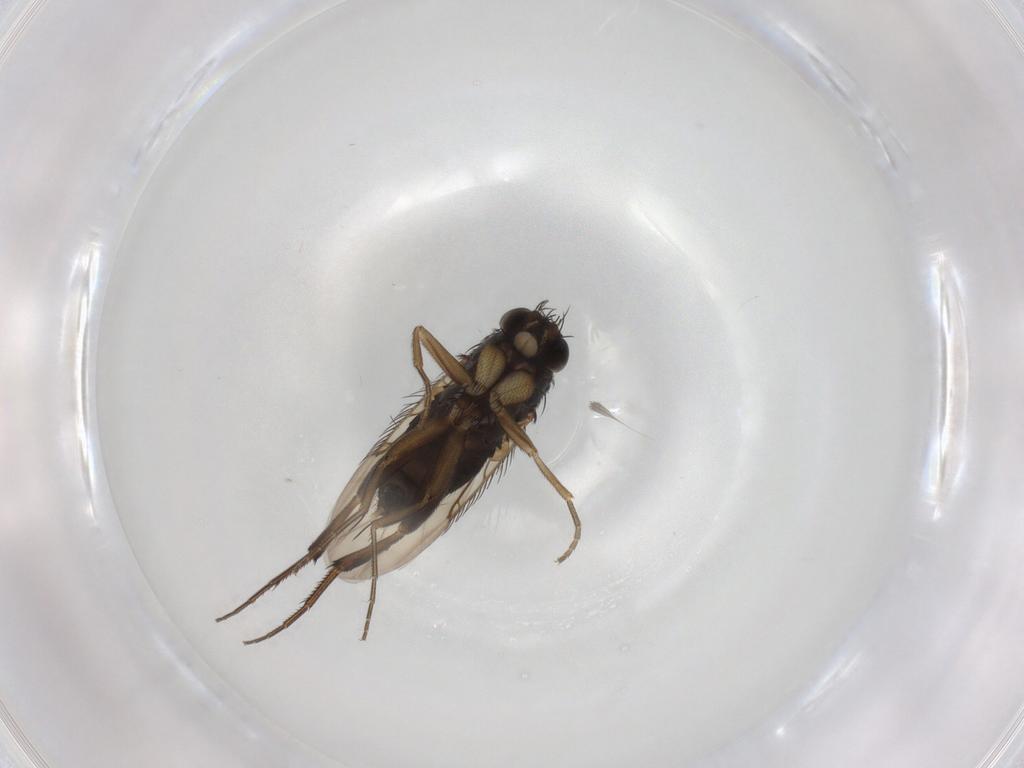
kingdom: Animalia
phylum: Arthropoda
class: Insecta
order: Diptera
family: Phoridae
